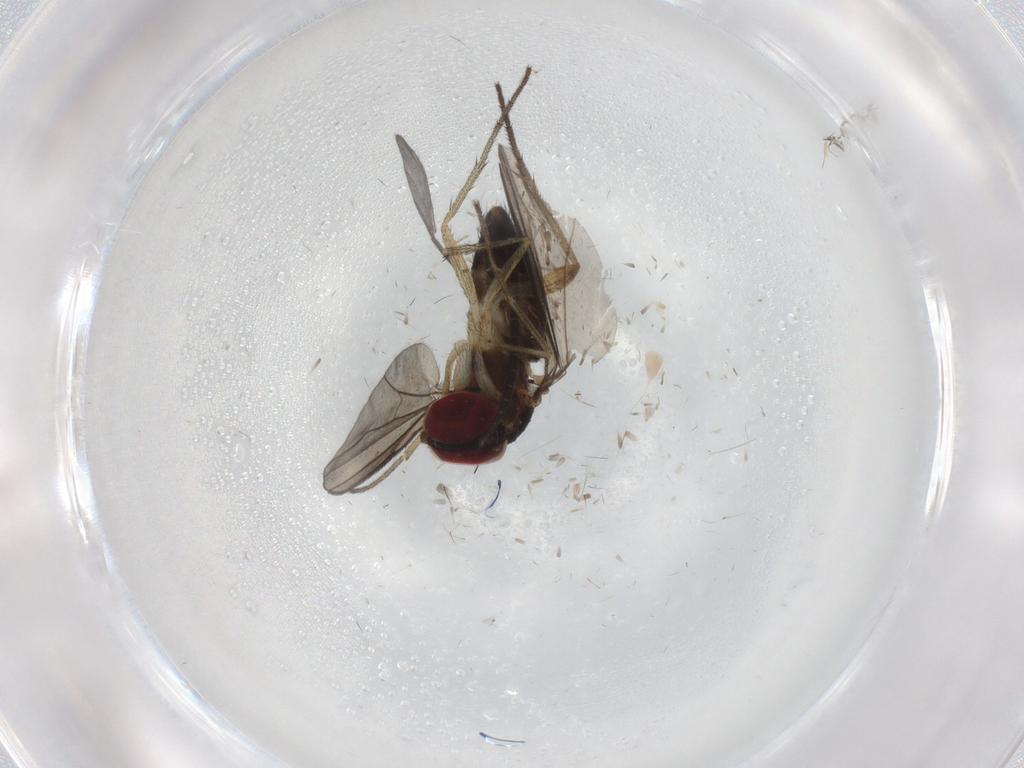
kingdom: Animalia
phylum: Arthropoda
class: Insecta
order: Diptera
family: Sciaridae
